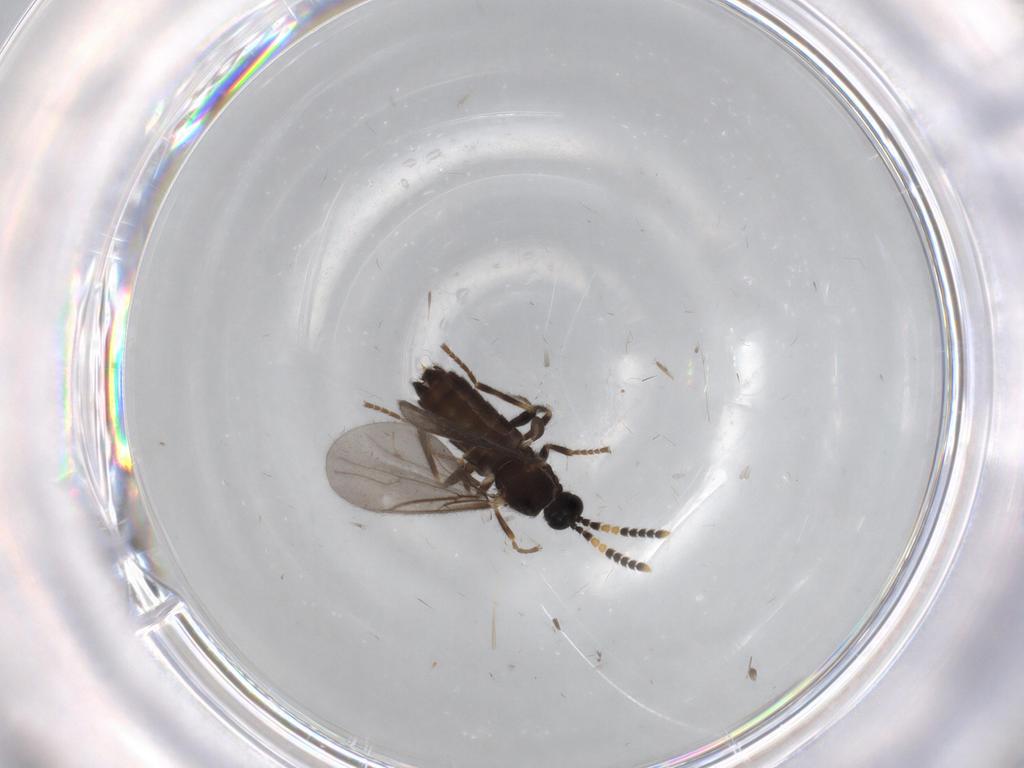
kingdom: Animalia
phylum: Arthropoda
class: Insecta
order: Diptera
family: Scatopsidae
